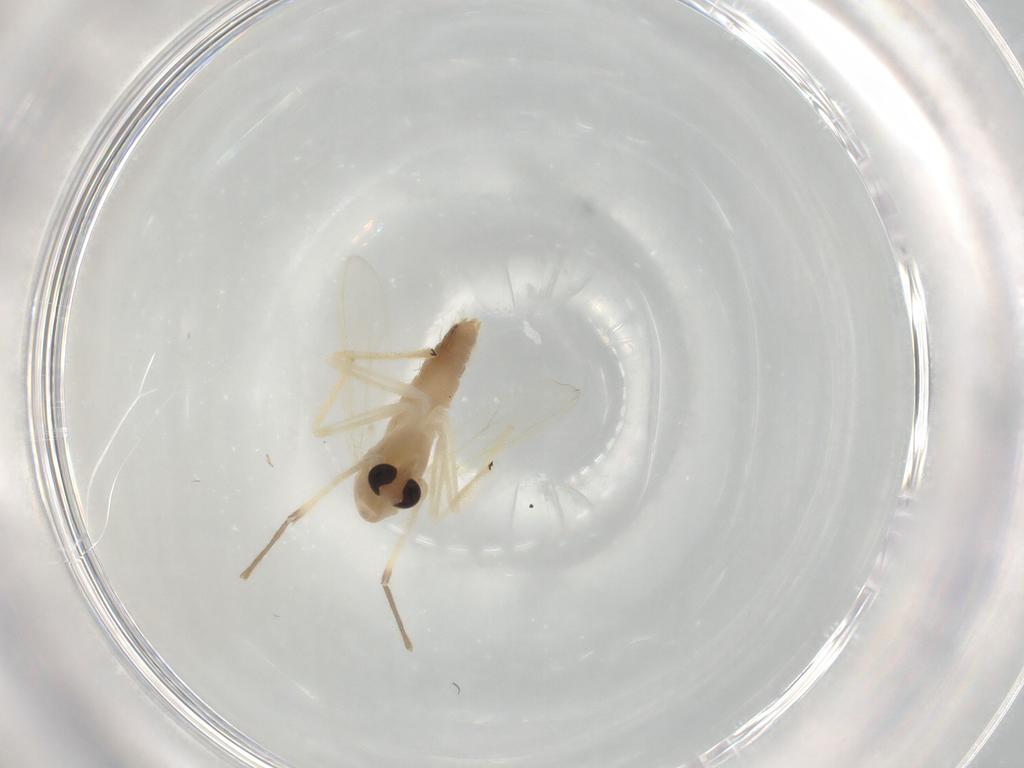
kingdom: Animalia
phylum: Arthropoda
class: Insecta
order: Diptera
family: Chironomidae
